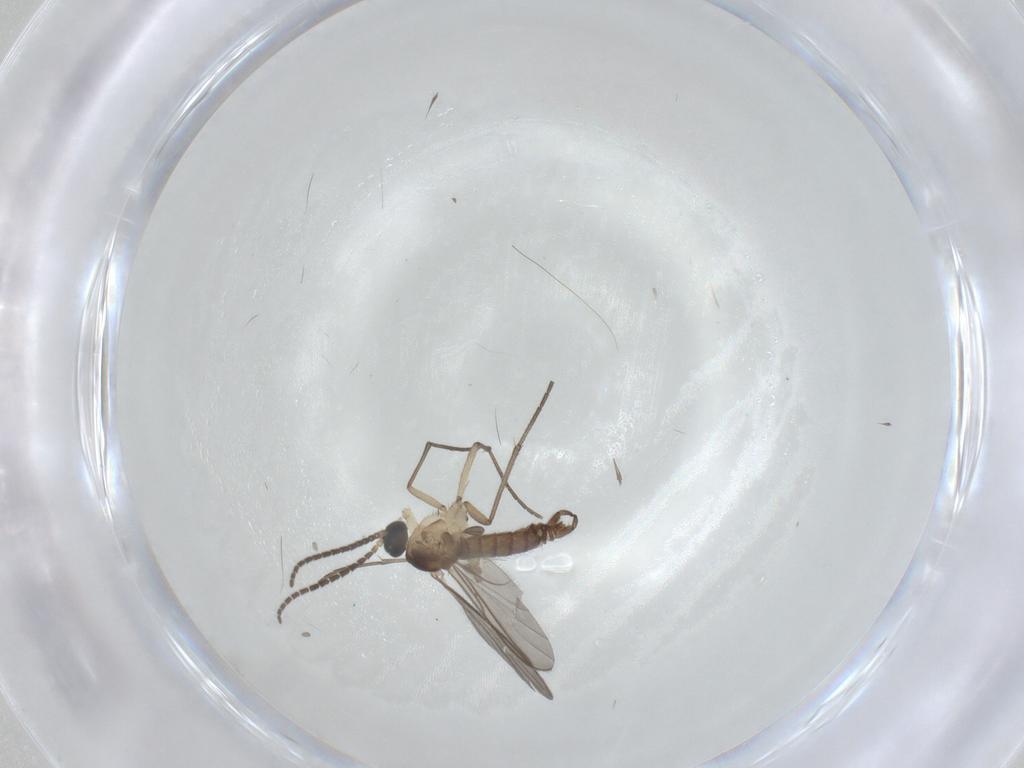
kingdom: Animalia
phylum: Arthropoda
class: Insecta
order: Diptera
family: Sciaridae
